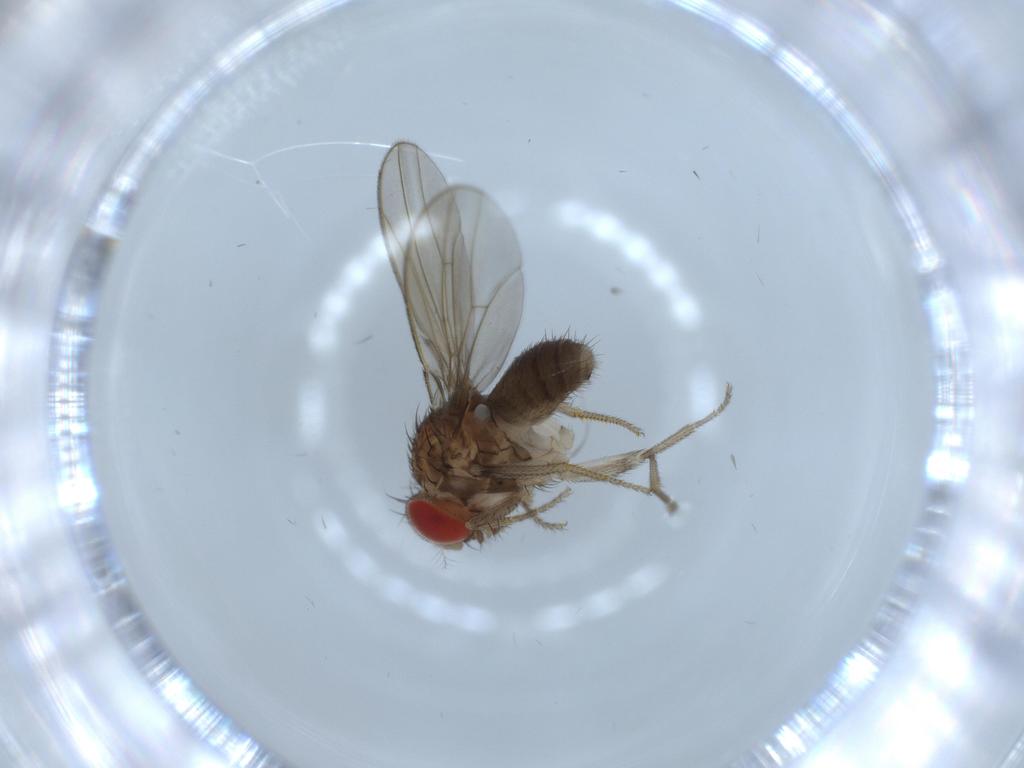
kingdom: Animalia
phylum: Arthropoda
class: Insecta
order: Diptera
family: Drosophilidae
